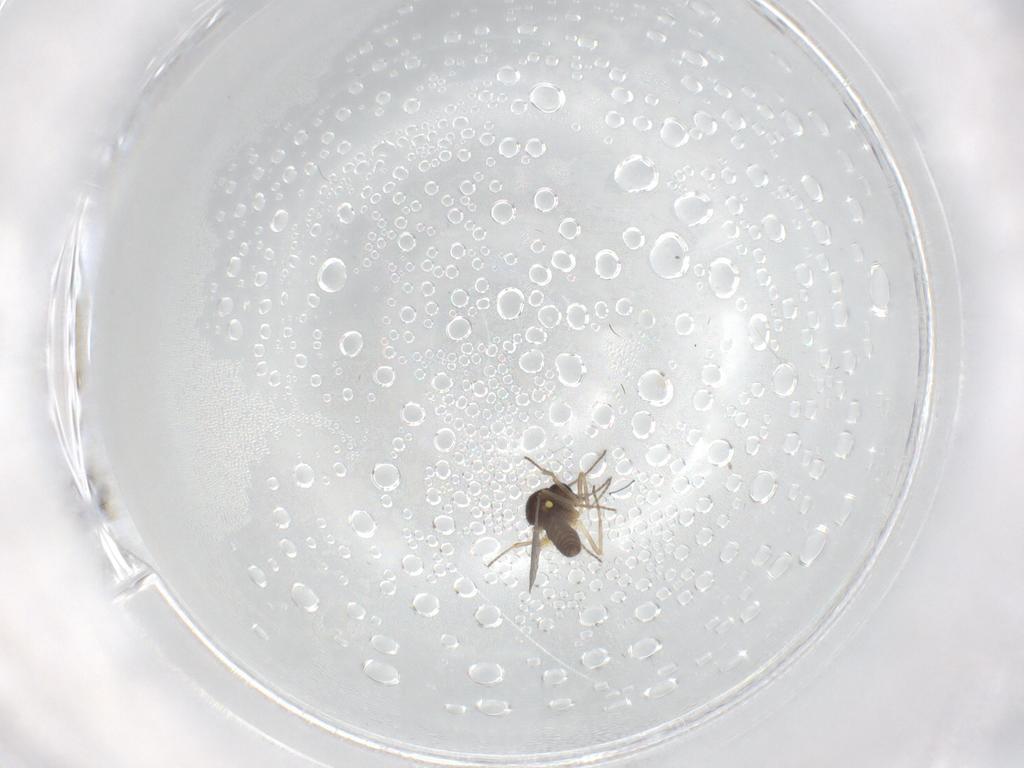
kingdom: Animalia
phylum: Arthropoda
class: Insecta
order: Diptera
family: Ceratopogonidae
